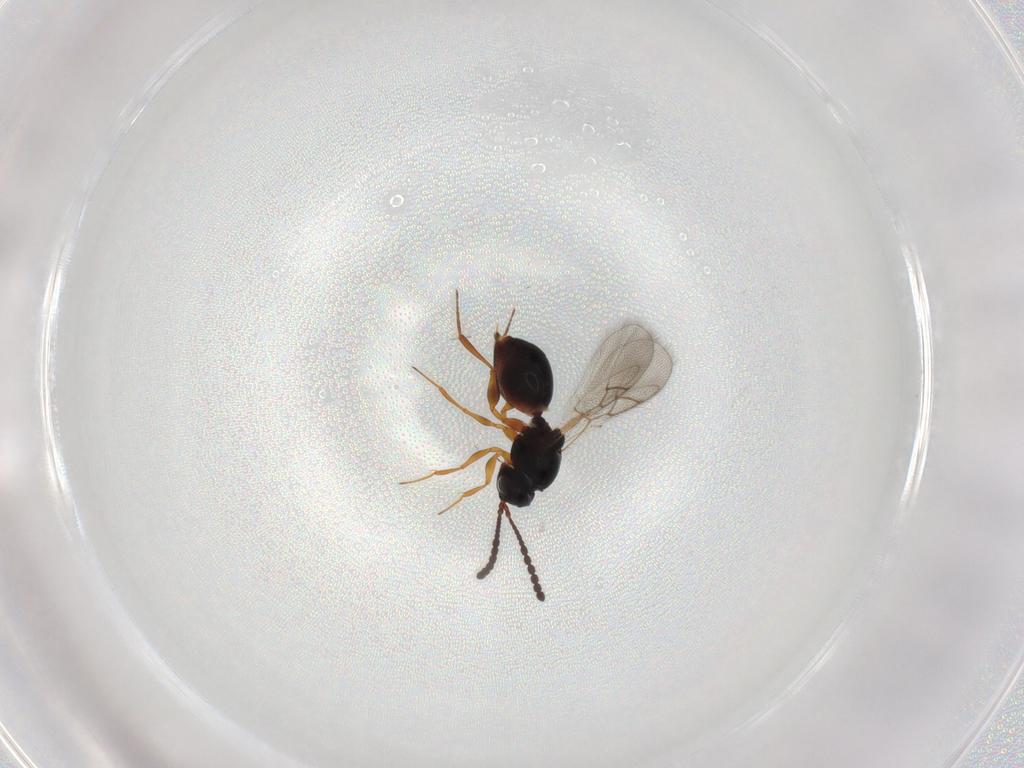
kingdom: Animalia
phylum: Arthropoda
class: Insecta
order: Hymenoptera
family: Figitidae
